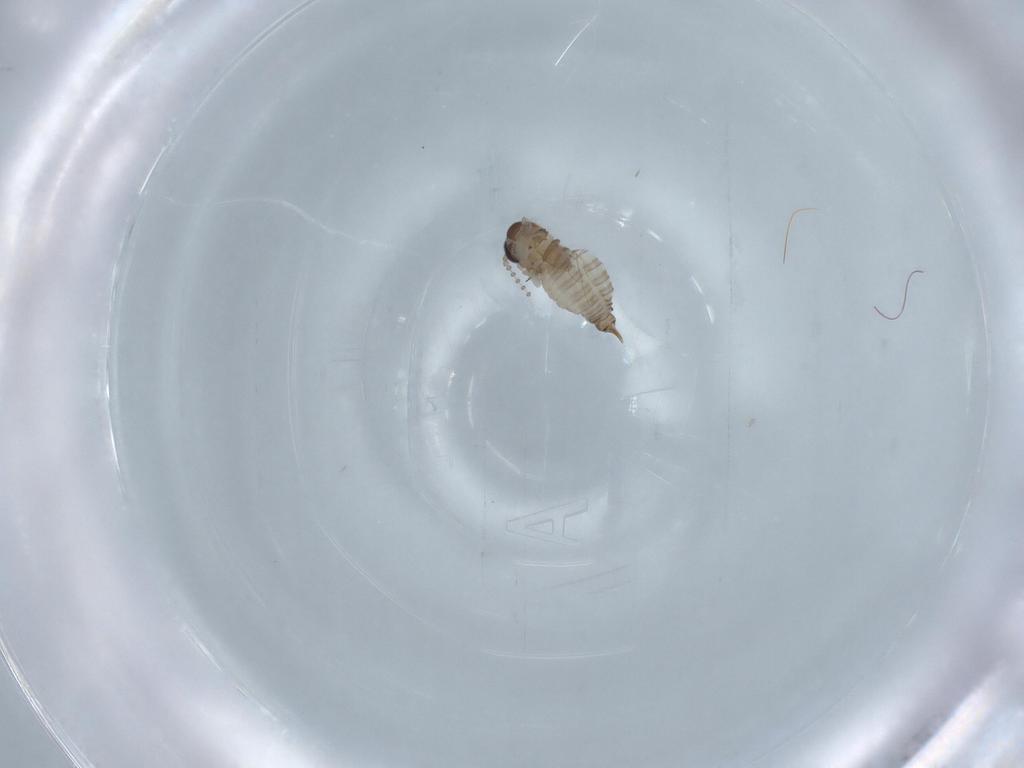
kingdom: Animalia
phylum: Arthropoda
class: Insecta
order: Diptera
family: Psychodidae
